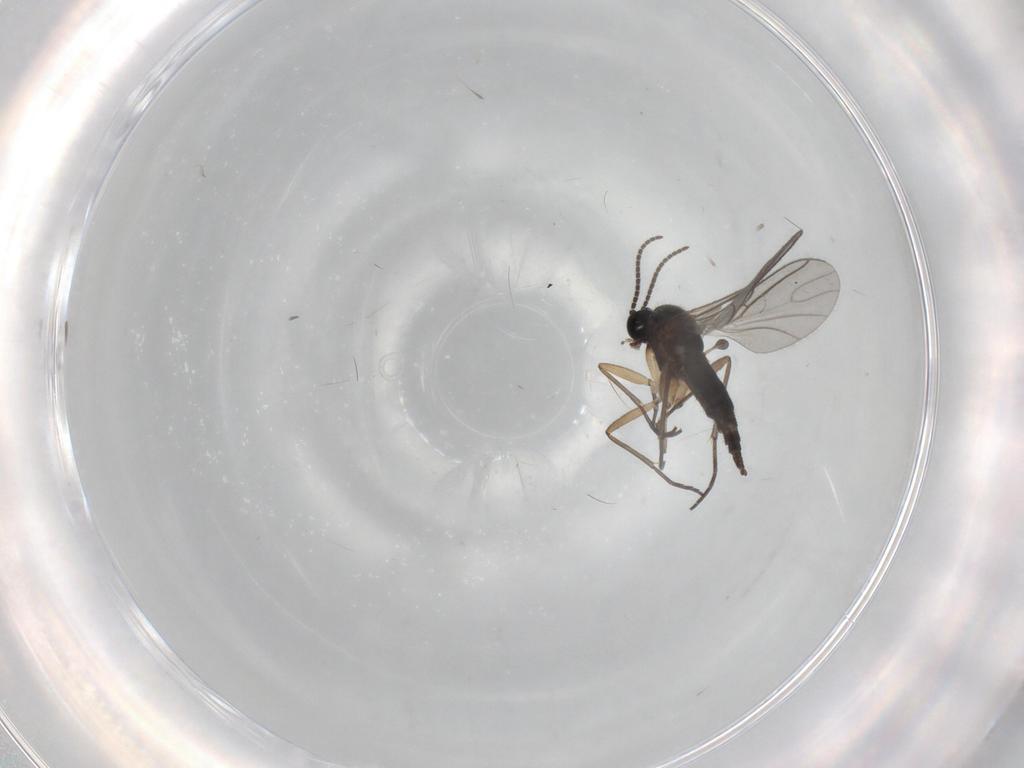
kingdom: Animalia
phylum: Arthropoda
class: Insecta
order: Diptera
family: Sciaridae
